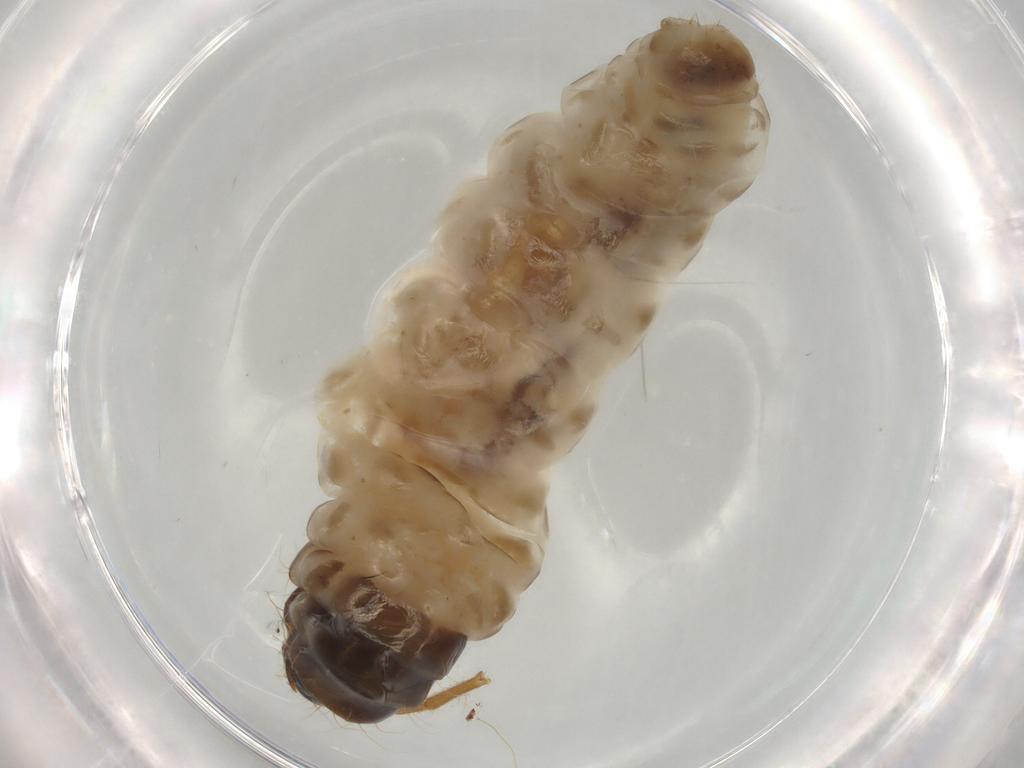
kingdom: Animalia
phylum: Arthropoda
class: Insecta
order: Lepidoptera
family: Psychidae
